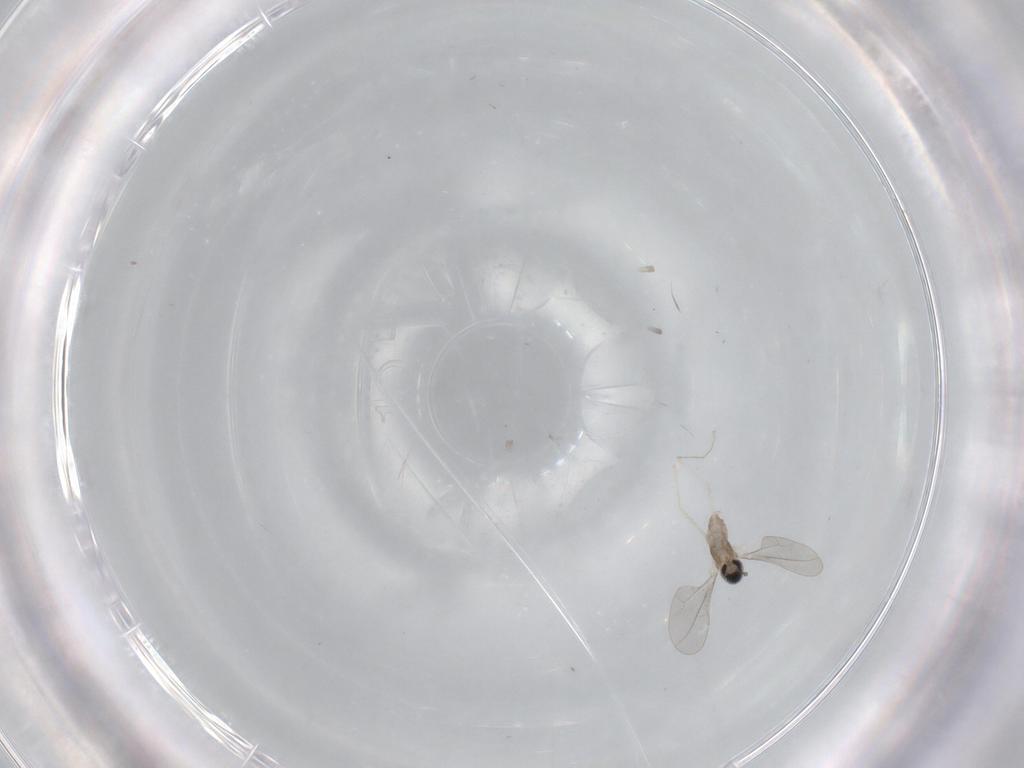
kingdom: Animalia
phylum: Arthropoda
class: Insecta
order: Diptera
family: Cecidomyiidae
